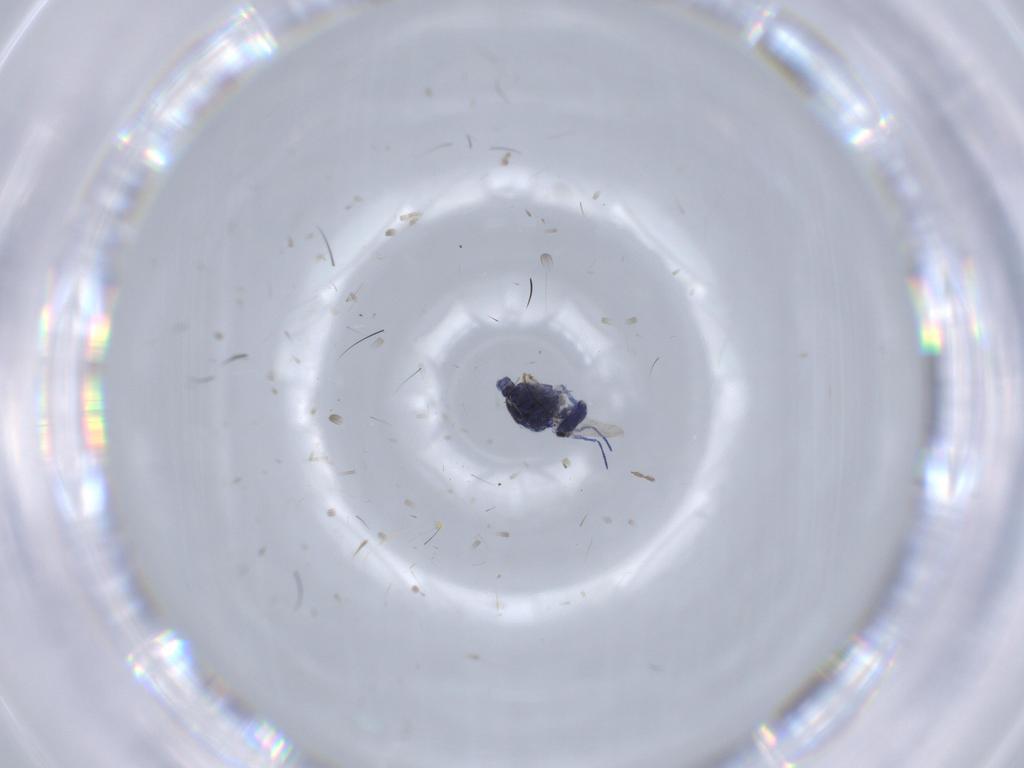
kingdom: Animalia
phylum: Arthropoda
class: Collembola
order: Symphypleona
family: Bourletiellidae
